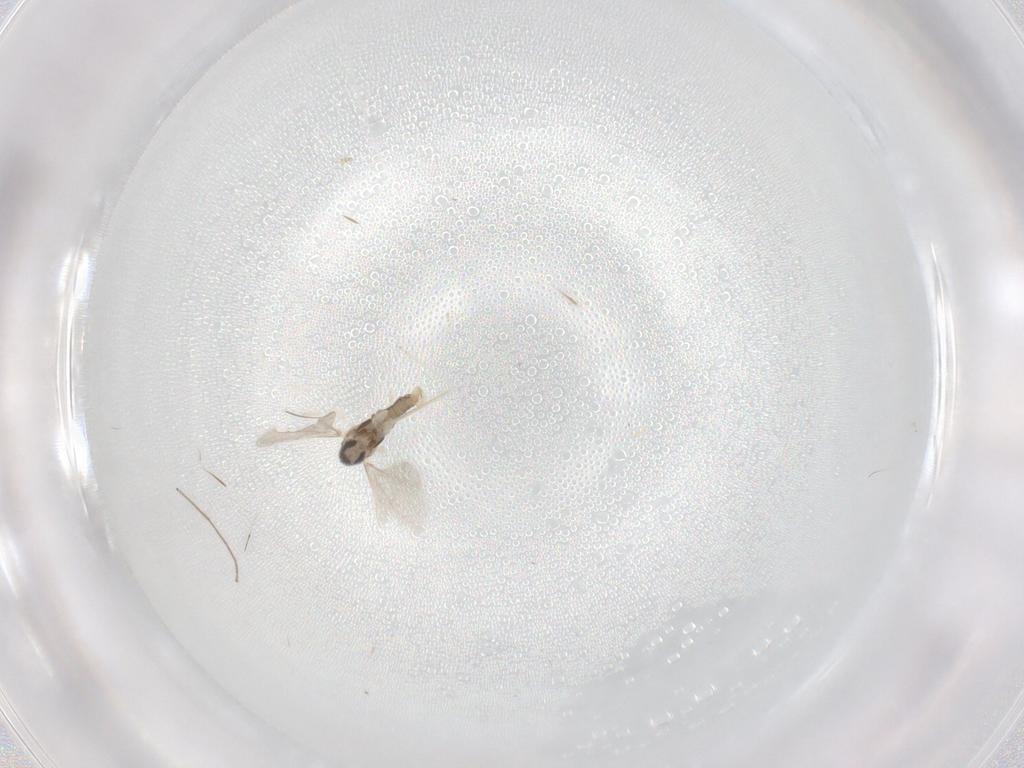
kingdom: Animalia
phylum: Arthropoda
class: Insecta
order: Diptera
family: Cecidomyiidae
